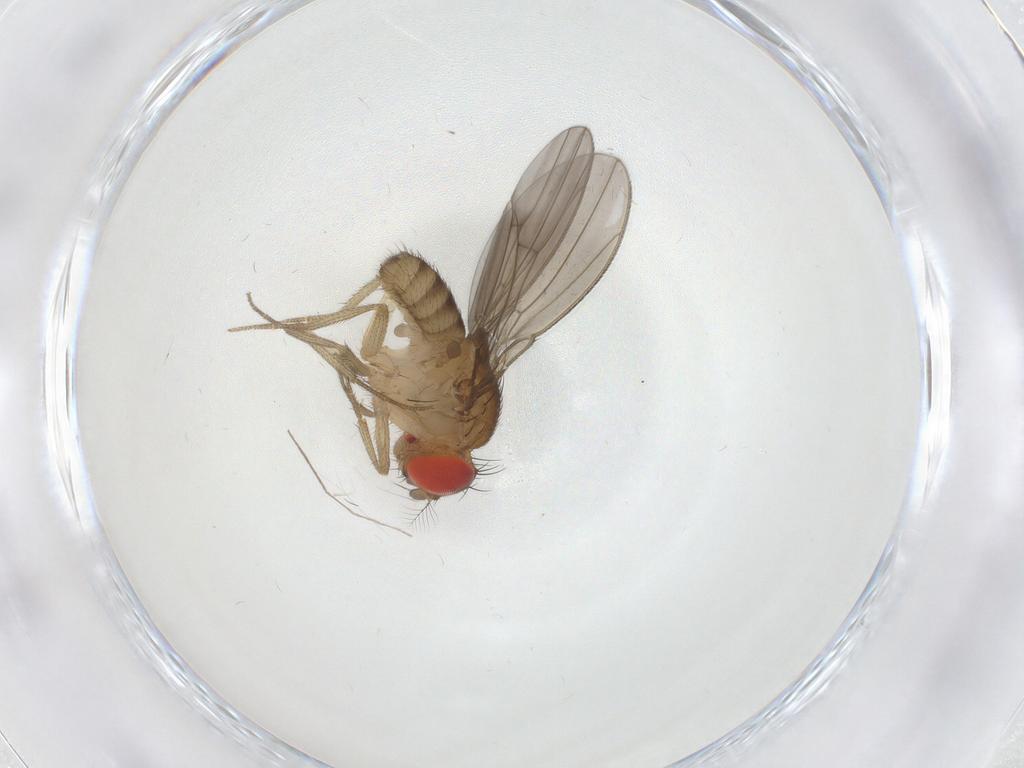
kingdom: Animalia
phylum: Arthropoda
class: Insecta
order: Diptera
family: Drosophilidae
